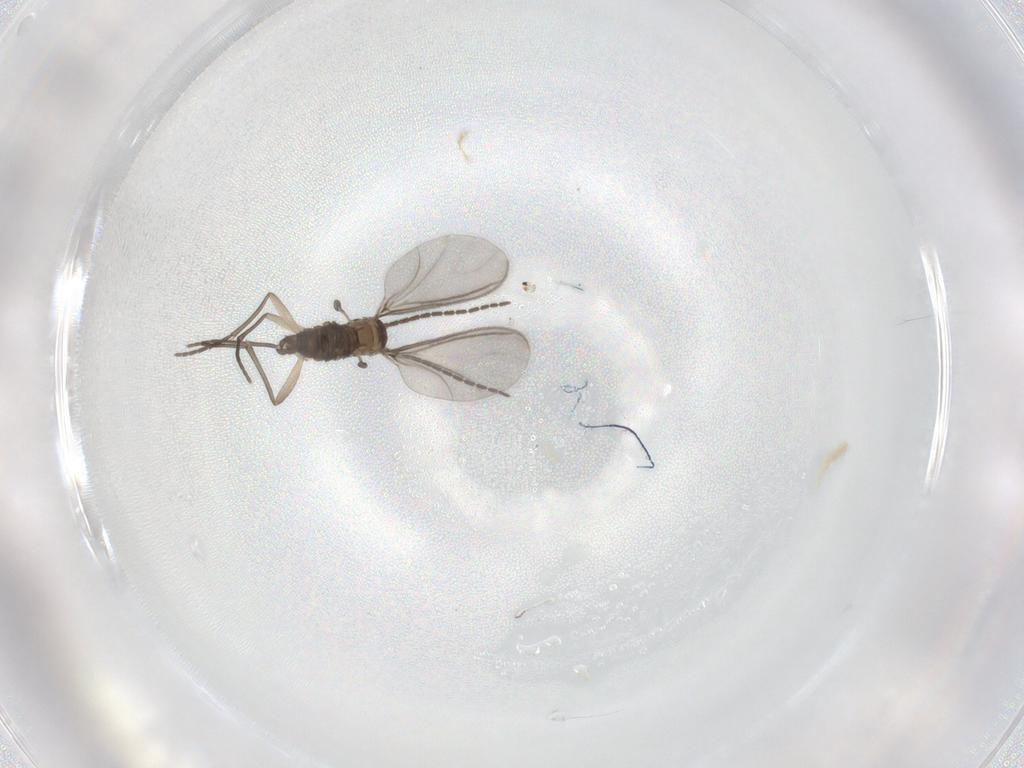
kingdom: Animalia
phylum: Arthropoda
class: Insecta
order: Diptera
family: Sciaridae
